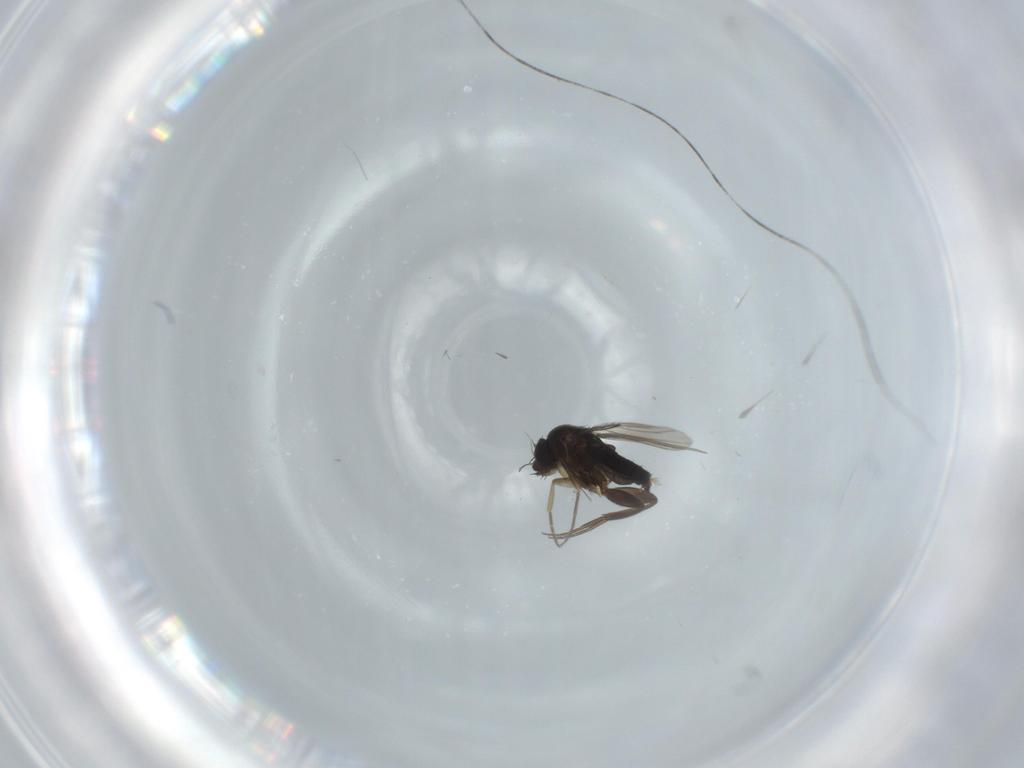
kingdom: Animalia
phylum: Arthropoda
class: Insecta
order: Diptera
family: Phoridae
